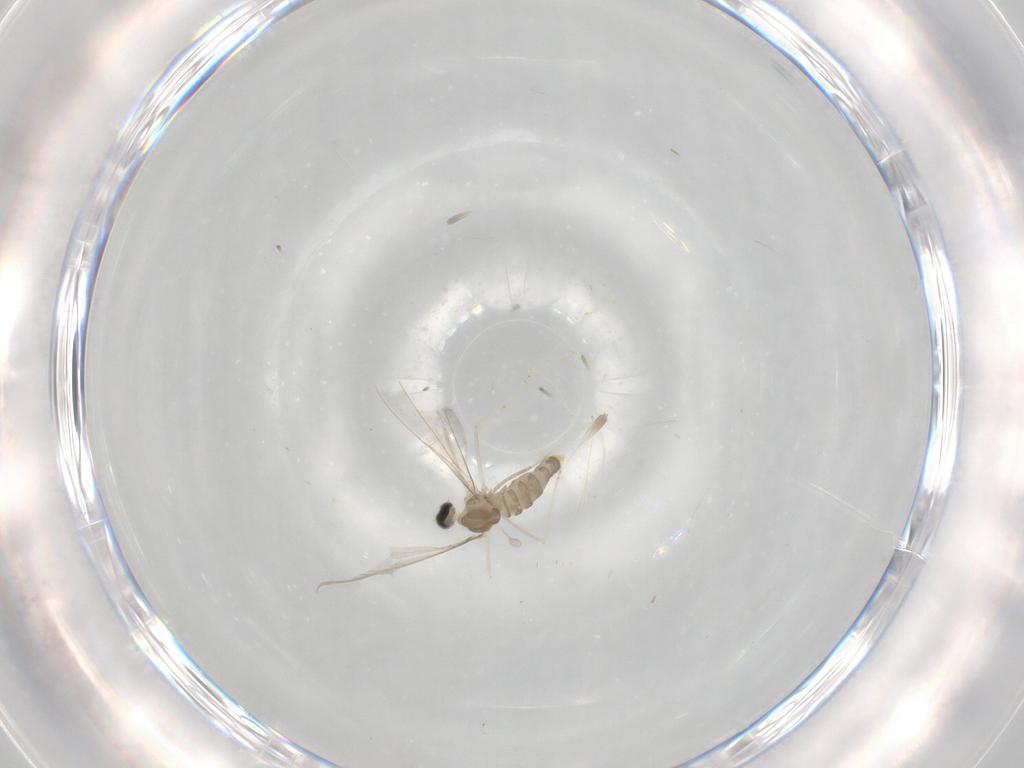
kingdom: Animalia
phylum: Arthropoda
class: Insecta
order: Diptera
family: Cecidomyiidae
